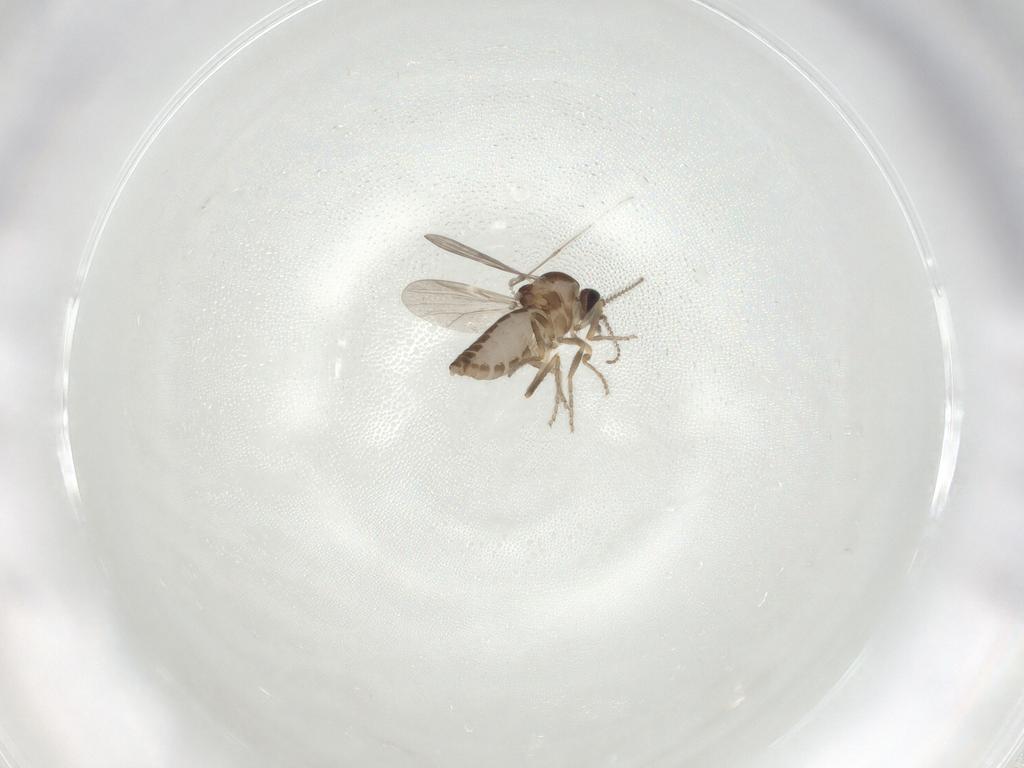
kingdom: Animalia
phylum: Arthropoda
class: Insecta
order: Diptera
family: Ceratopogonidae
